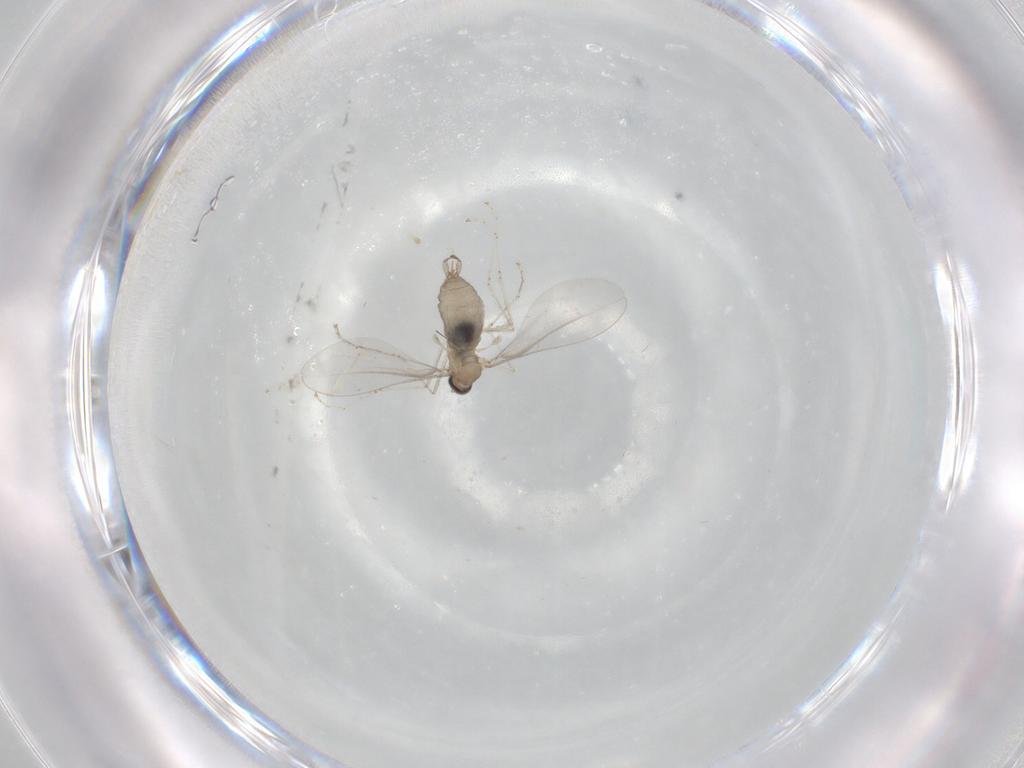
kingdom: Animalia
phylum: Arthropoda
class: Insecta
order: Diptera
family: Cecidomyiidae
